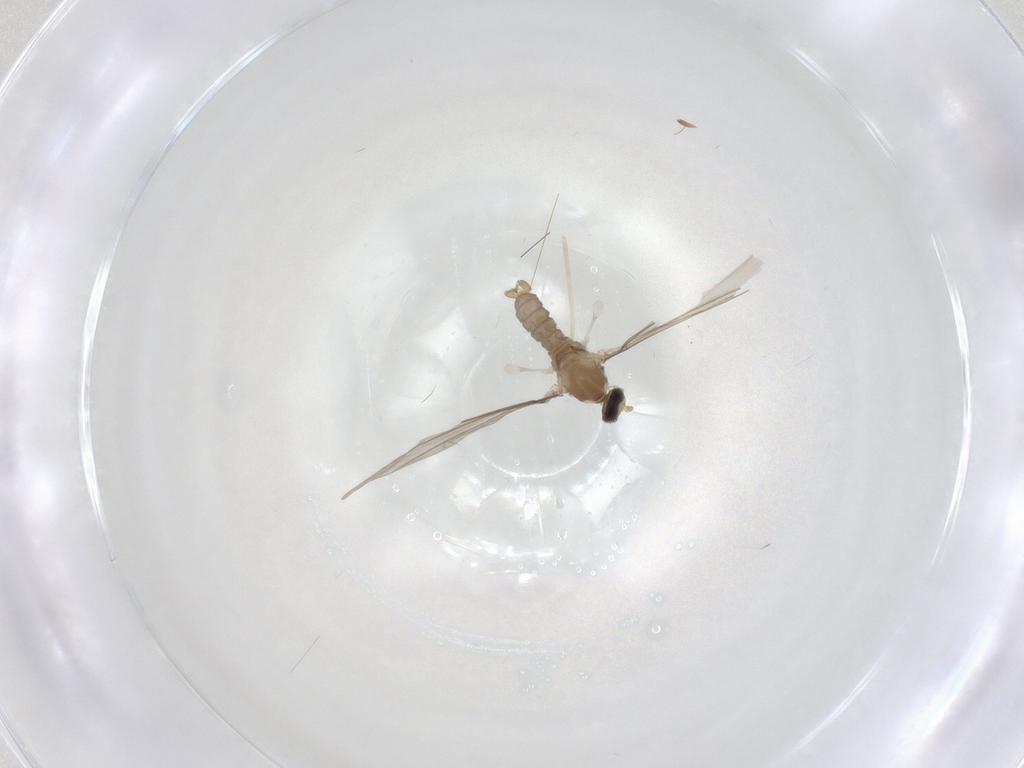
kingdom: Animalia
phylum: Arthropoda
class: Insecta
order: Diptera
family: Cecidomyiidae
